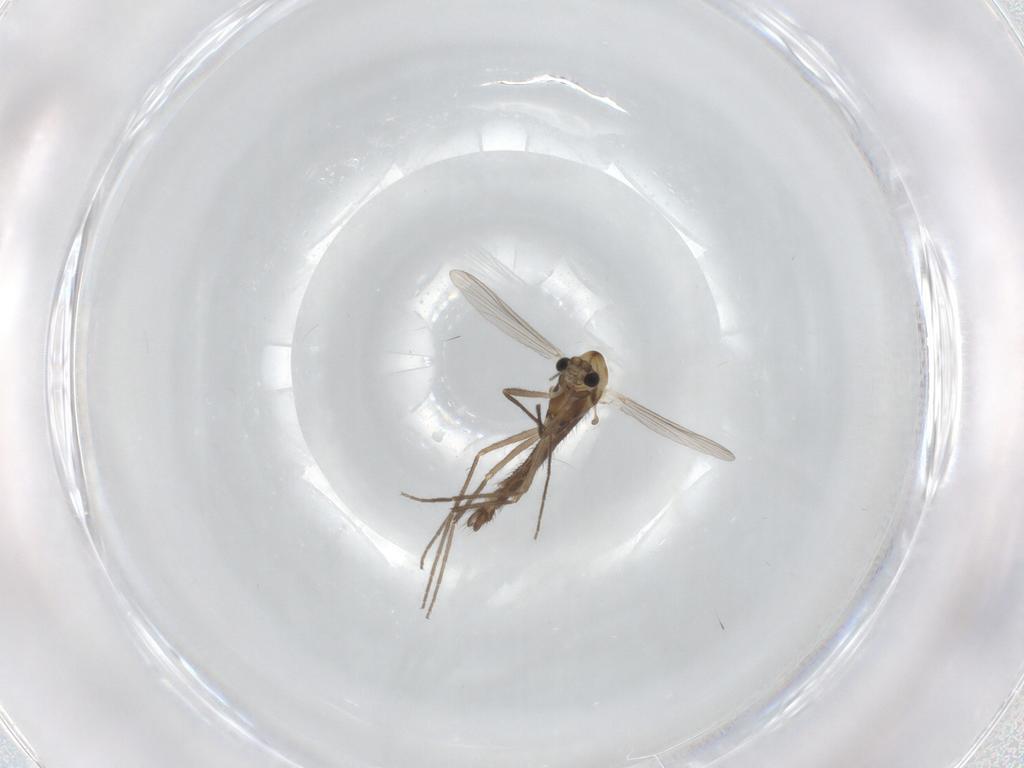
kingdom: Animalia
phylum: Arthropoda
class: Insecta
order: Diptera
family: Chironomidae
